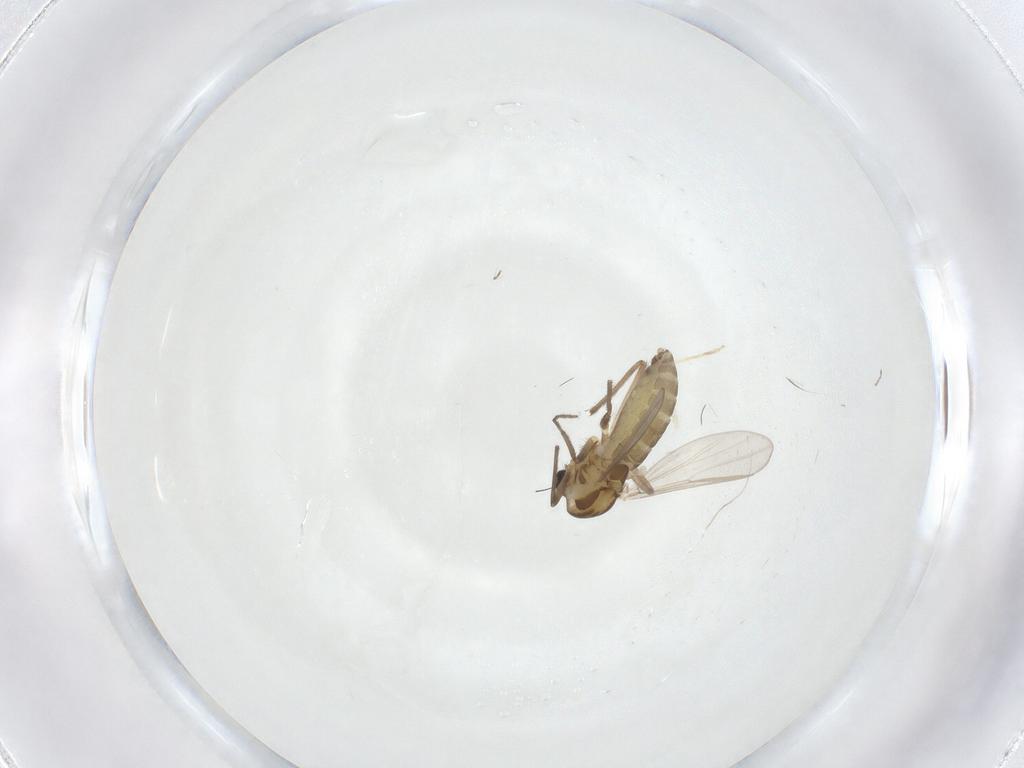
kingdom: Animalia
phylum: Arthropoda
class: Insecta
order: Diptera
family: Chironomidae
